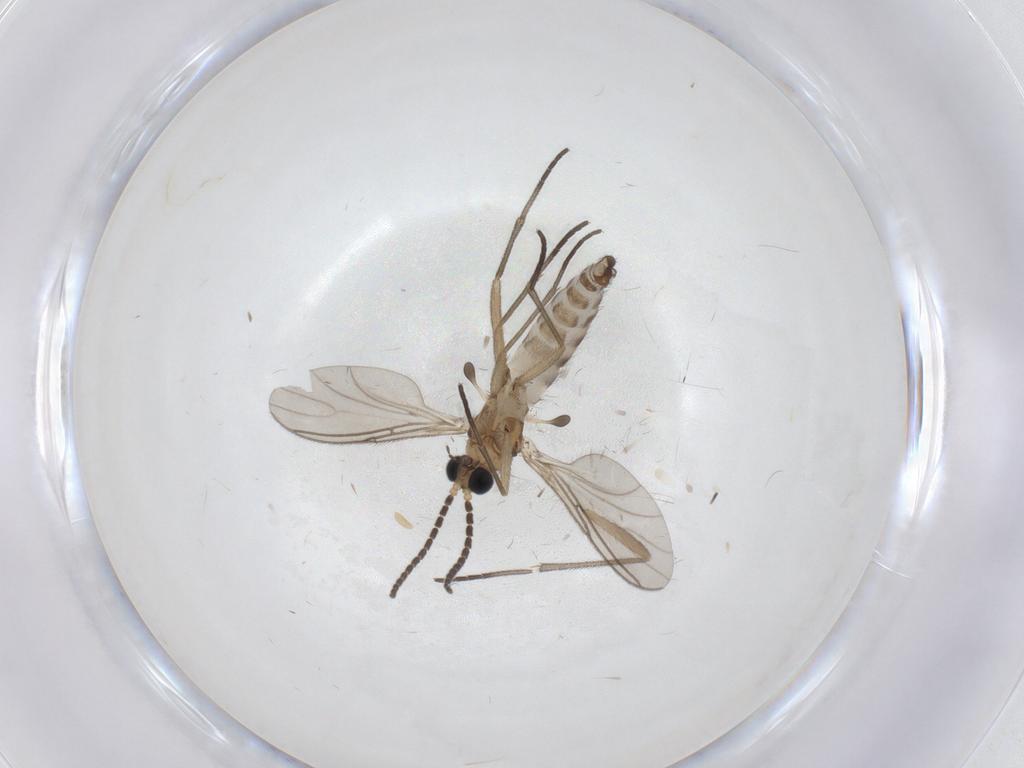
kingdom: Animalia
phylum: Arthropoda
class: Insecta
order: Diptera
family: Sciaridae
